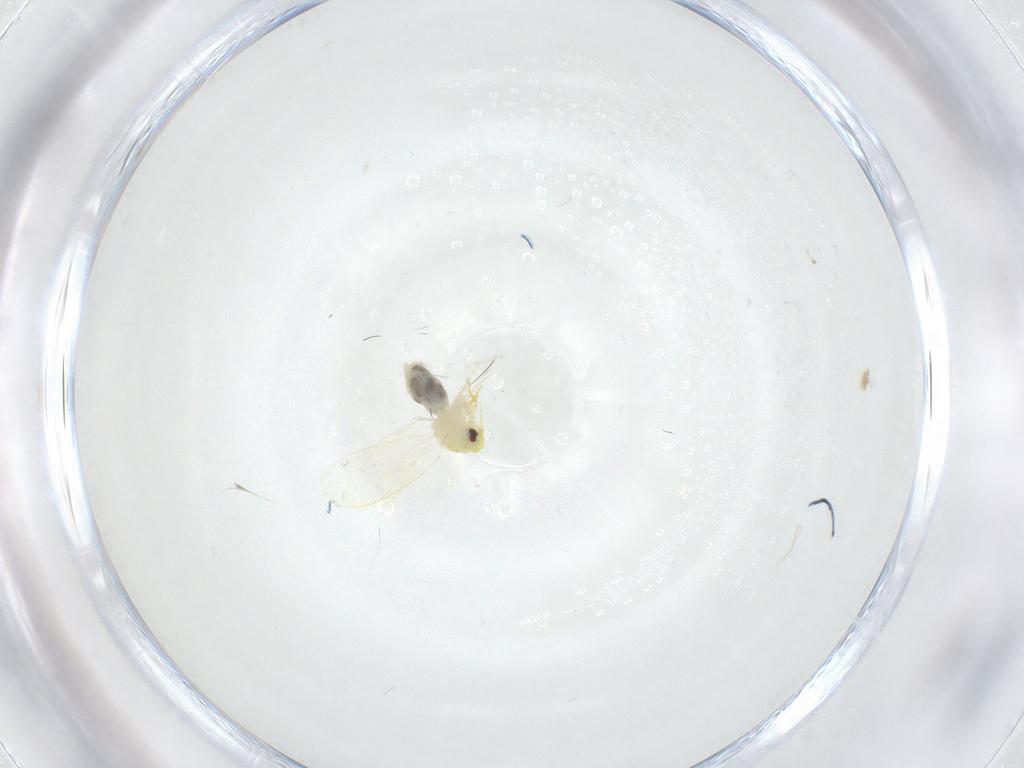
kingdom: Animalia
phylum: Arthropoda
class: Insecta
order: Hemiptera
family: Aleyrodidae
